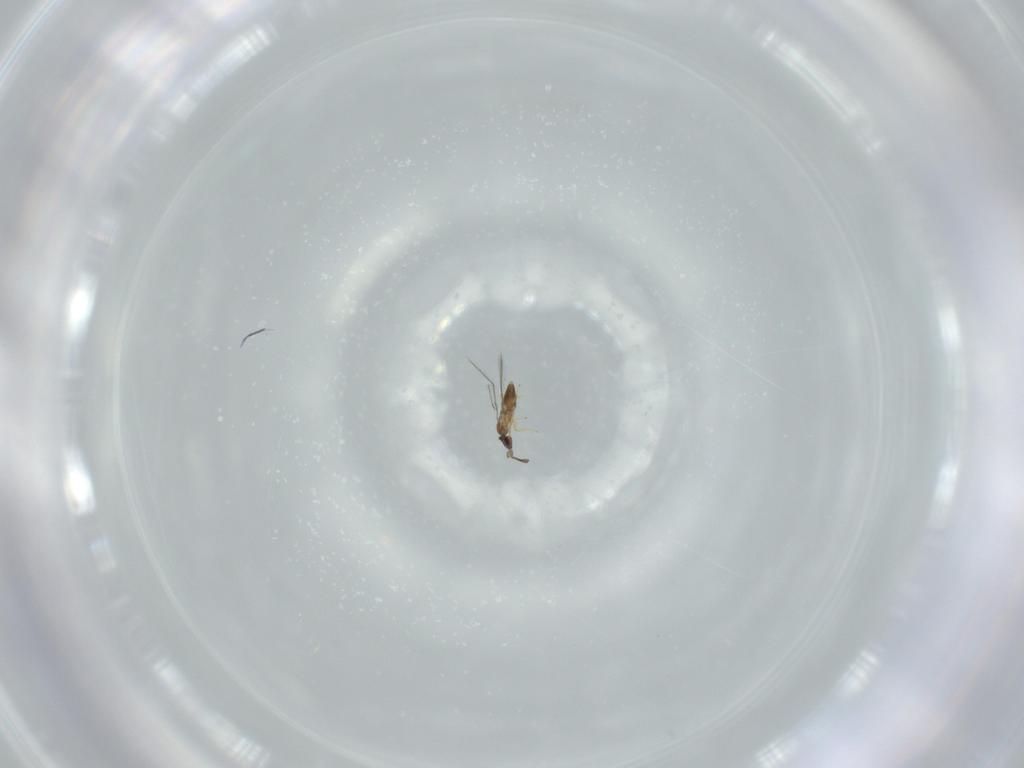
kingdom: Animalia
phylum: Arthropoda
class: Insecta
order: Hymenoptera
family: Mymaridae
